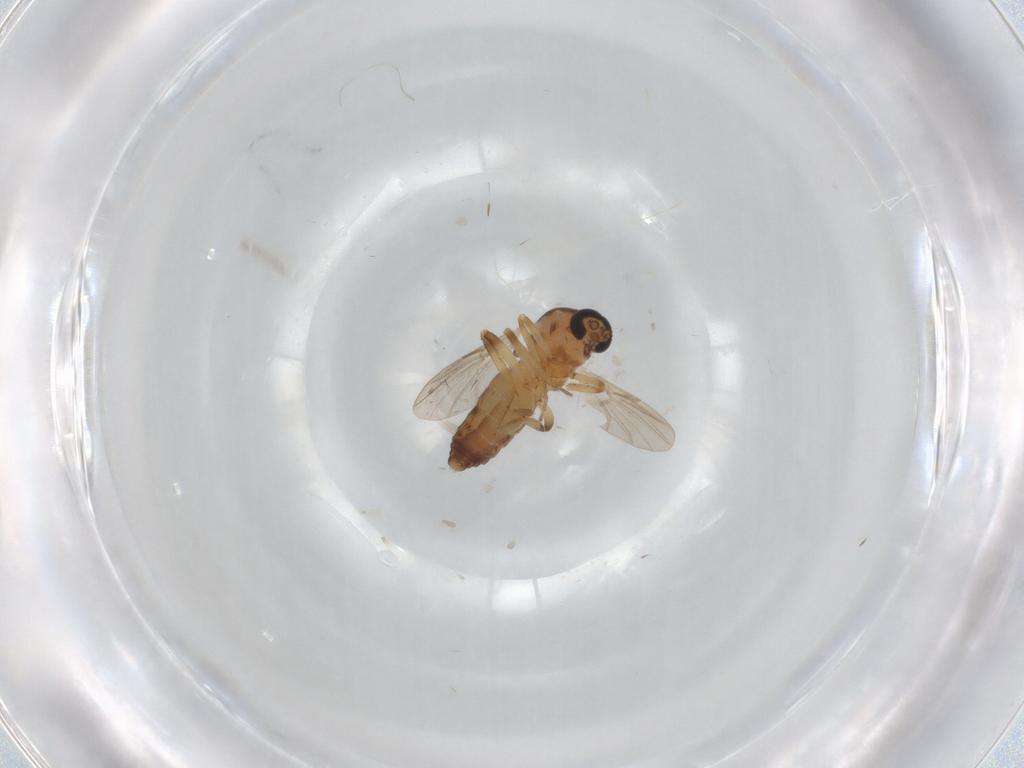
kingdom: Animalia
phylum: Arthropoda
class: Insecta
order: Diptera
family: Ceratopogonidae
